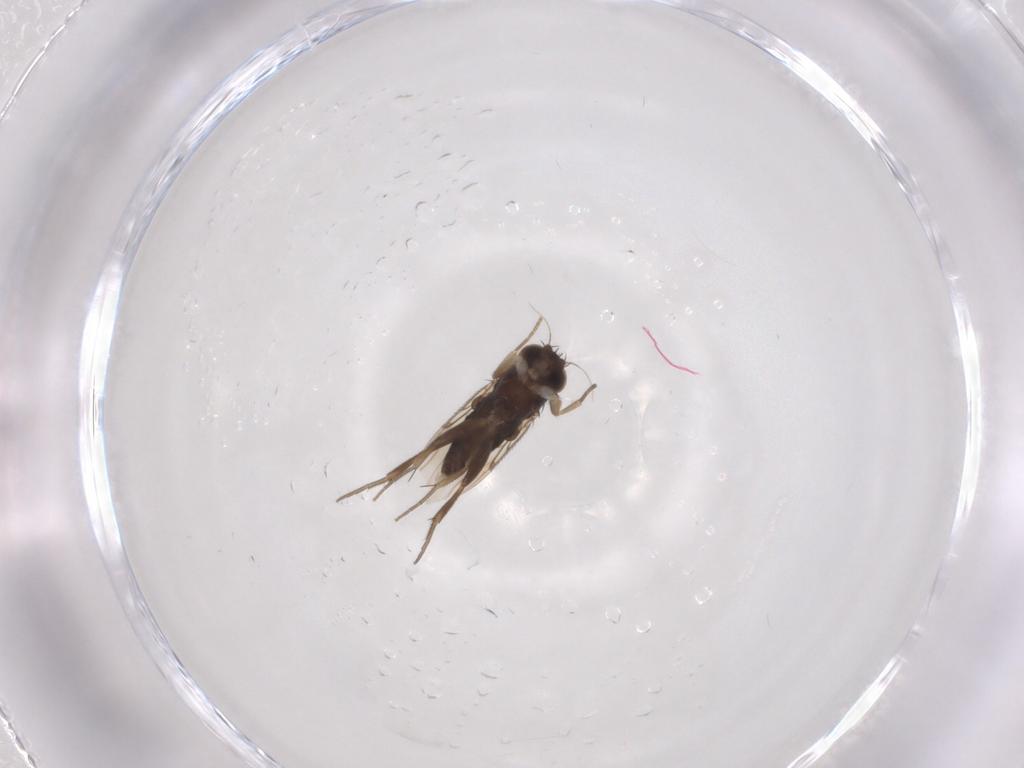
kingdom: Animalia
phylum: Arthropoda
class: Insecta
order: Diptera
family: Phoridae
